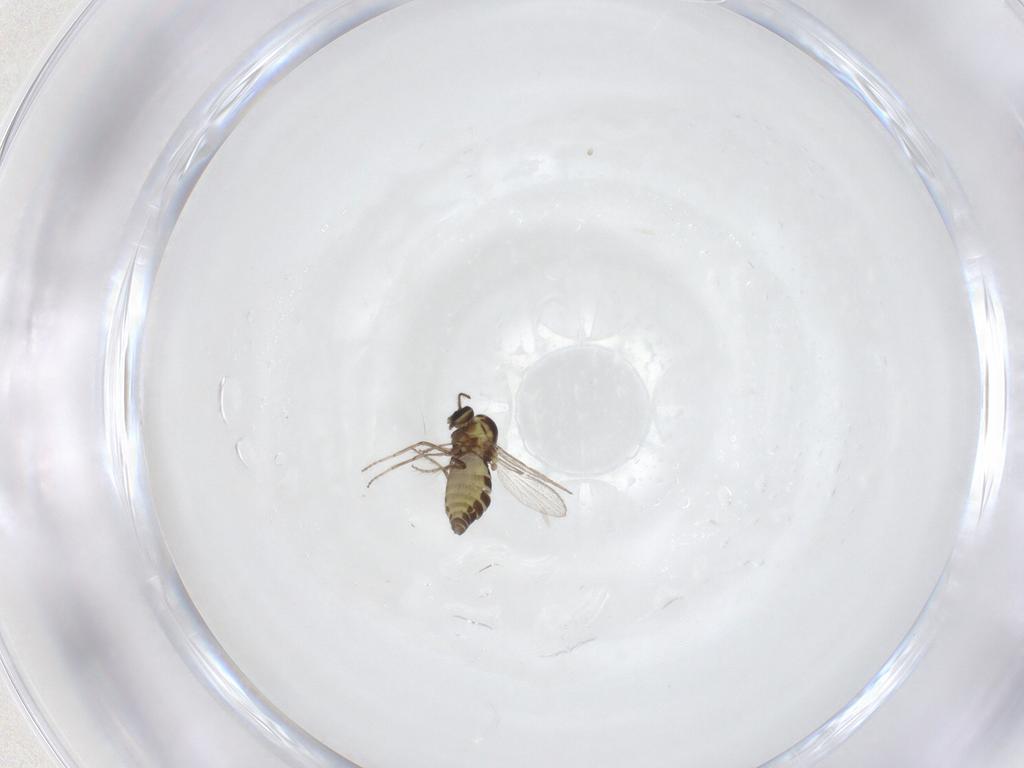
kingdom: Animalia
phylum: Arthropoda
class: Insecta
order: Diptera
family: Ceratopogonidae
